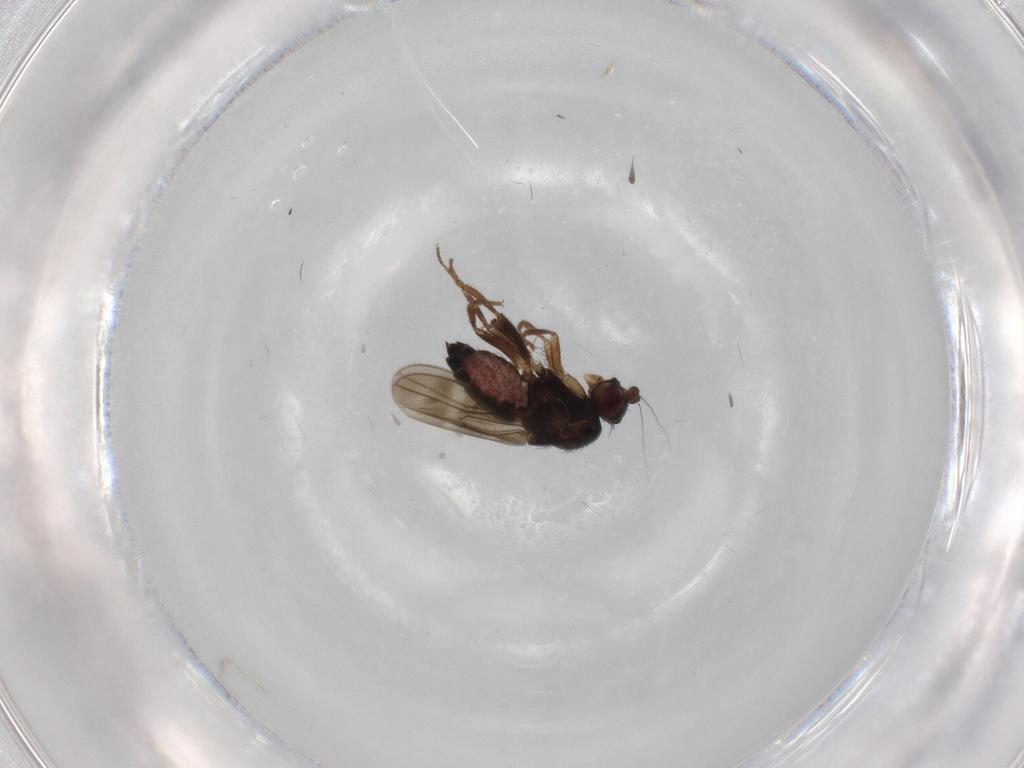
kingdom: Animalia
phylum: Arthropoda
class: Insecta
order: Diptera
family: Sphaeroceridae
